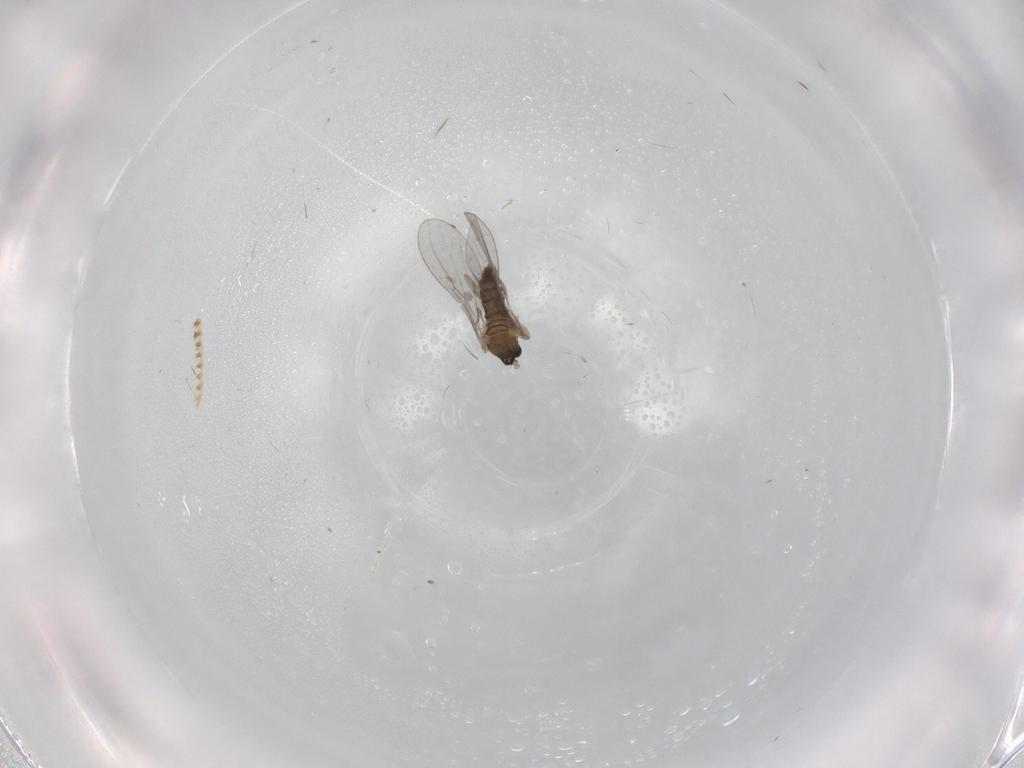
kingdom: Animalia
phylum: Arthropoda
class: Insecta
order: Diptera
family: Cecidomyiidae
